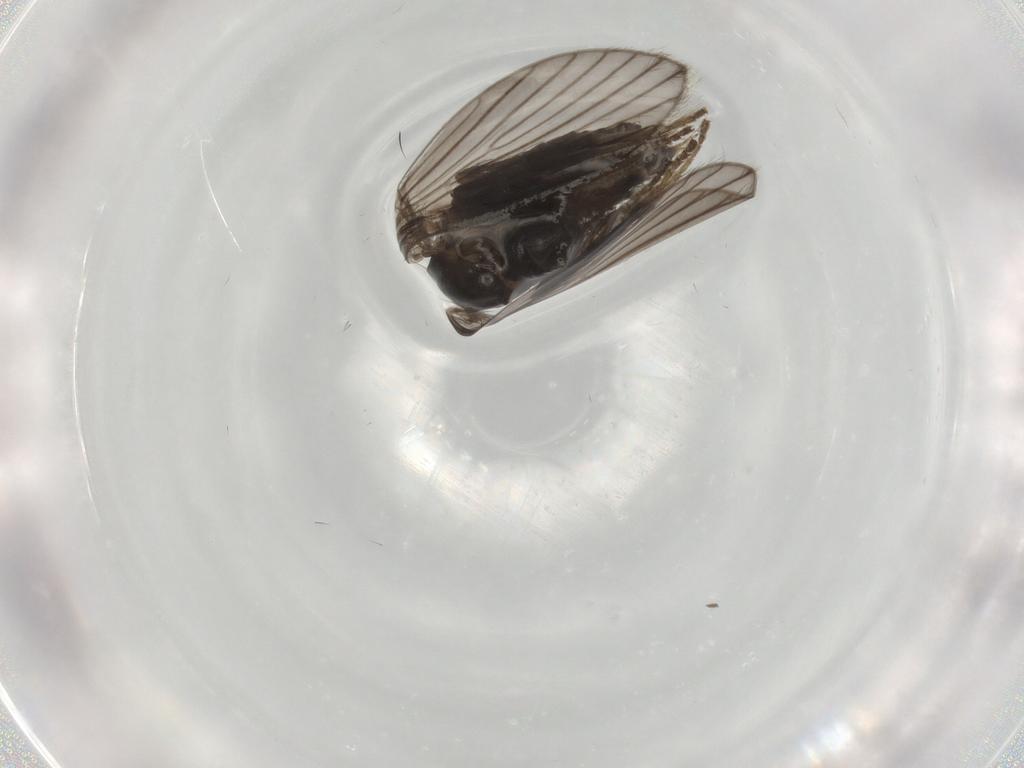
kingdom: Animalia
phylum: Arthropoda
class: Insecta
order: Diptera
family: Psychodidae
